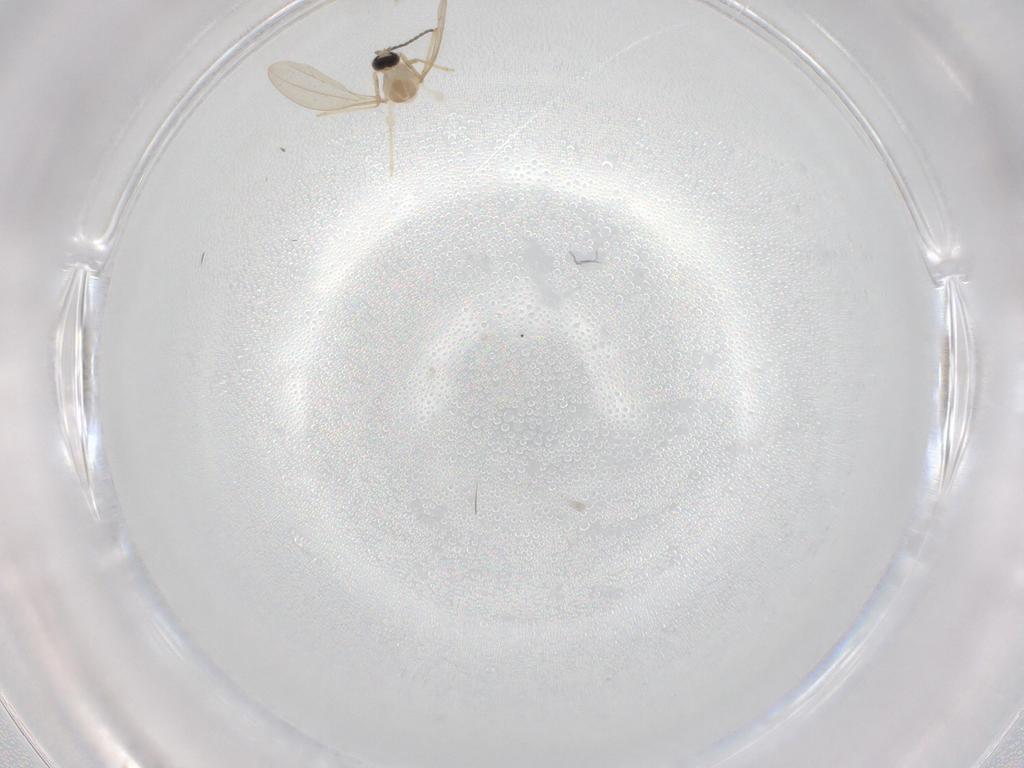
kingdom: Animalia
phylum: Arthropoda
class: Insecta
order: Diptera
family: Cecidomyiidae
